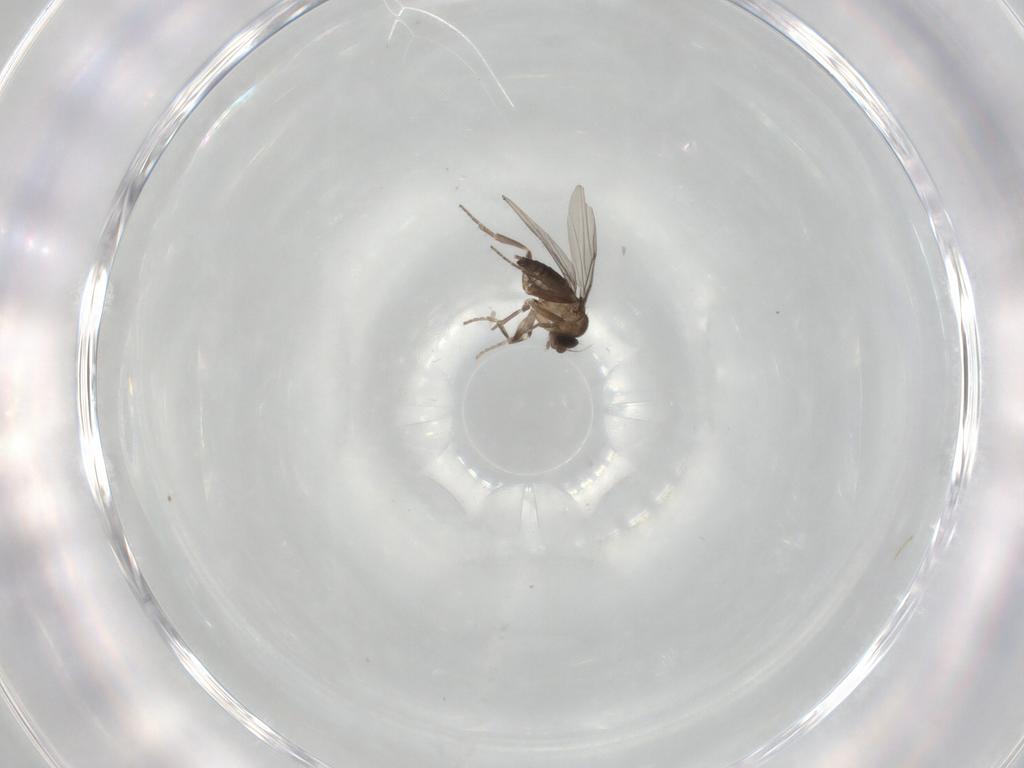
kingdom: Animalia
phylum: Arthropoda
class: Insecta
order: Diptera
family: Phoridae
